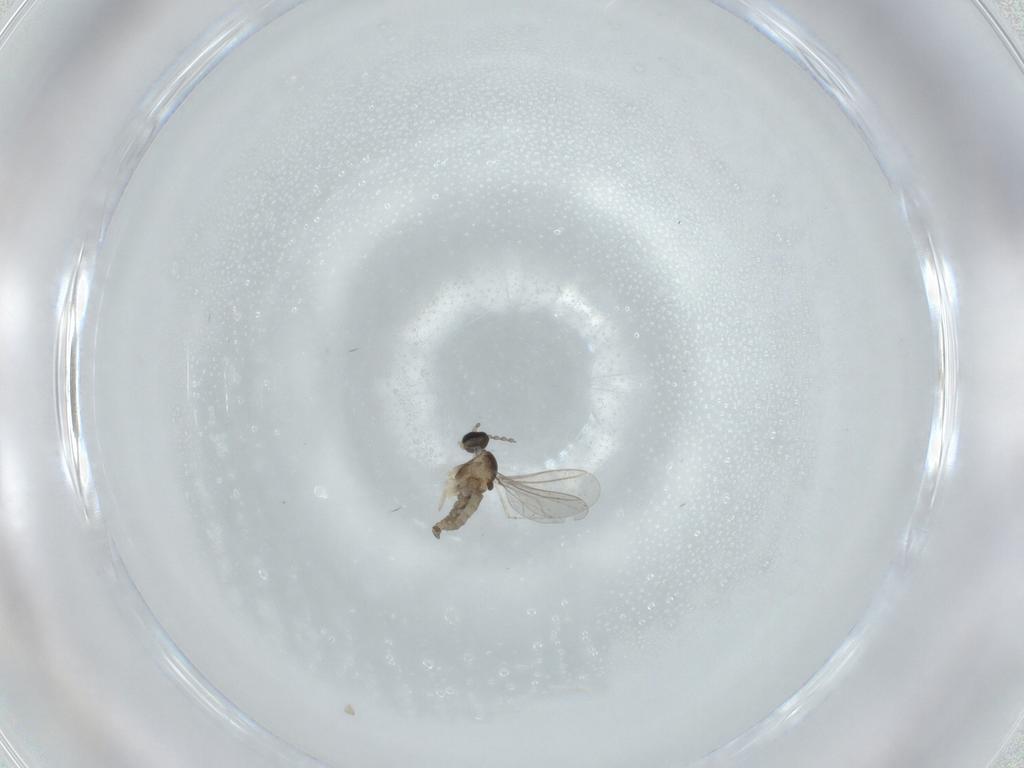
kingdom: Animalia
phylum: Arthropoda
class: Insecta
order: Diptera
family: Cecidomyiidae
